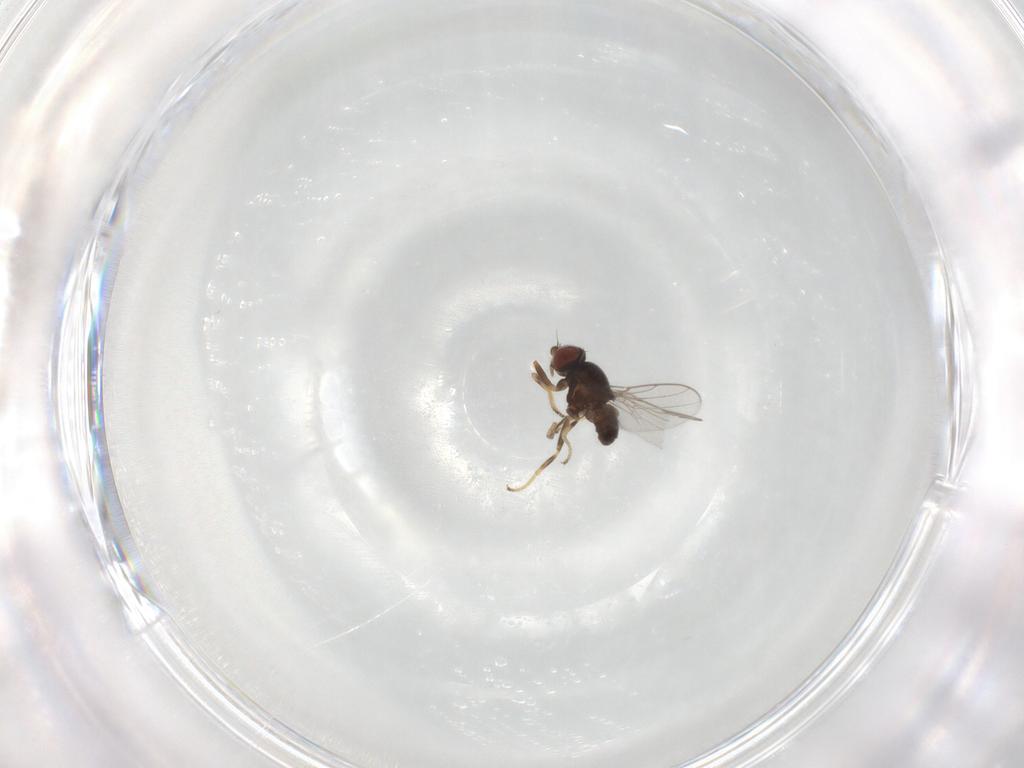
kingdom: Animalia
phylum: Arthropoda
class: Insecta
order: Diptera
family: Chloropidae
